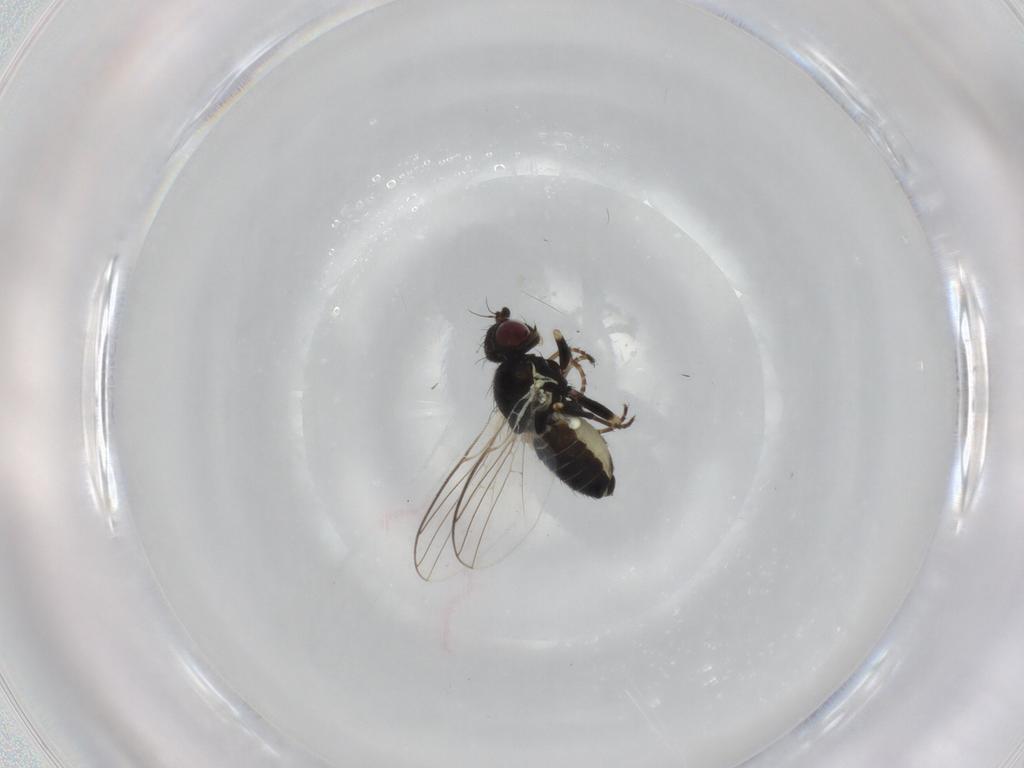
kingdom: Animalia
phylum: Arthropoda
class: Insecta
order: Diptera
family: Agromyzidae
